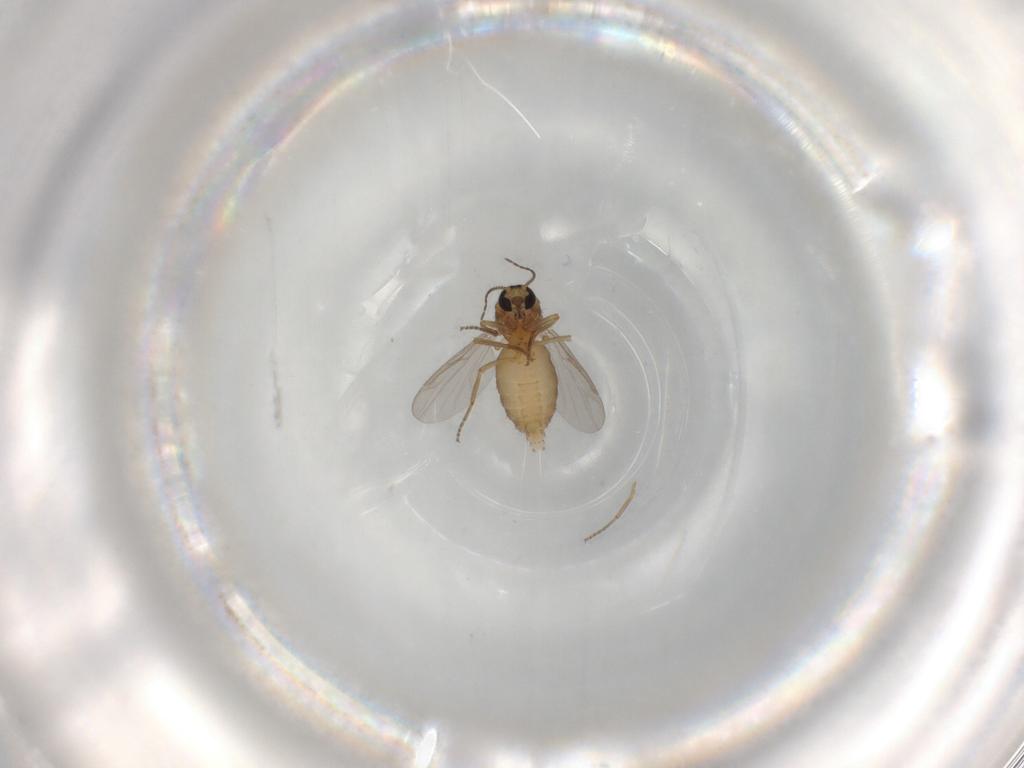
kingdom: Animalia
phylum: Arthropoda
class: Insecta
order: Diptera
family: Ceratopogonidae
